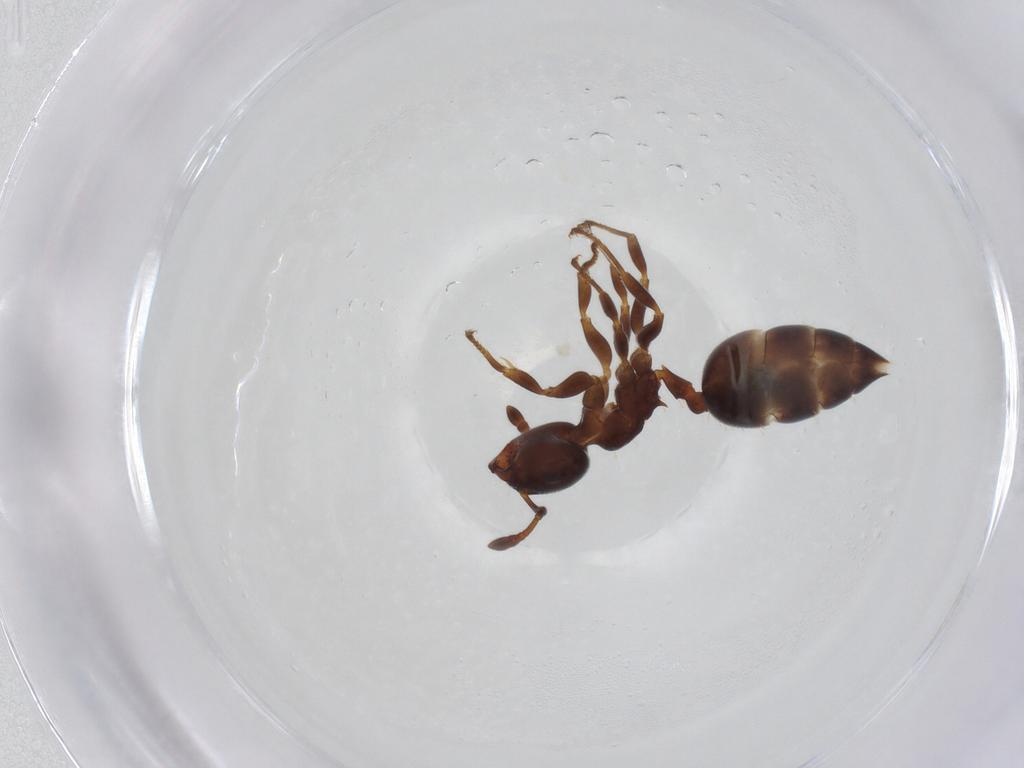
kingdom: Animalia
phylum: Arthropoda
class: Insecta
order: Hymenoptera
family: Formicidae
